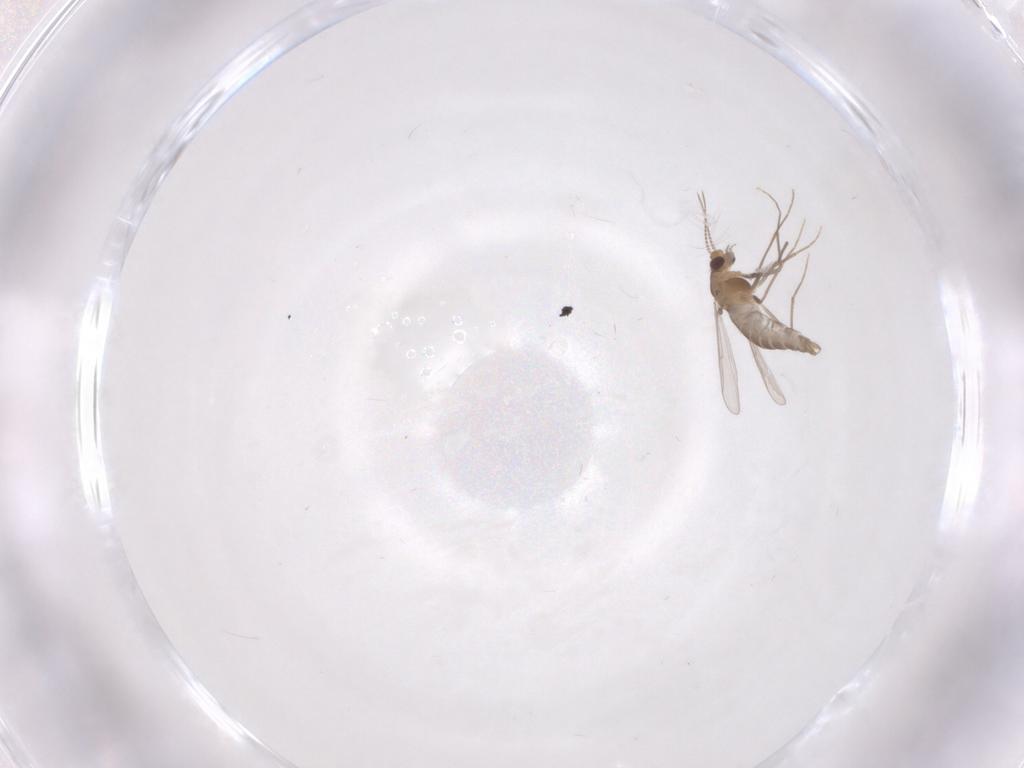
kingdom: Animalia
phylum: Arthropoda
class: Insecta
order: Diptera
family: Chironomidae
